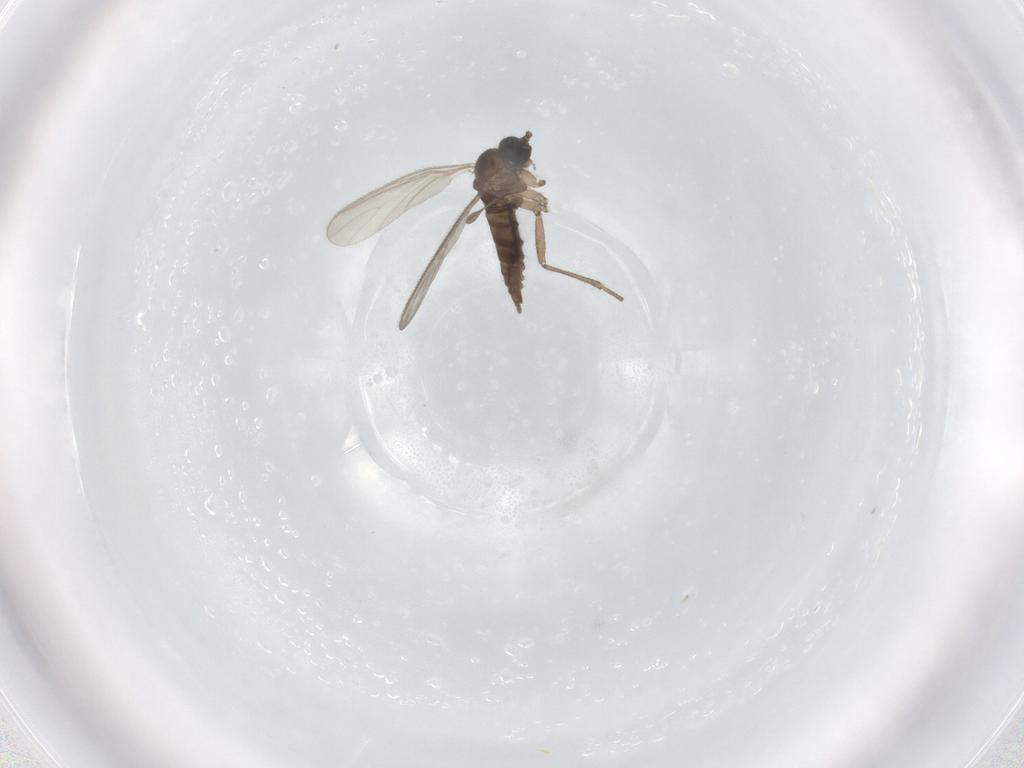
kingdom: Animalia
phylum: Arthropoda
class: Insecta
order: Diptera
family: Sciaridae
